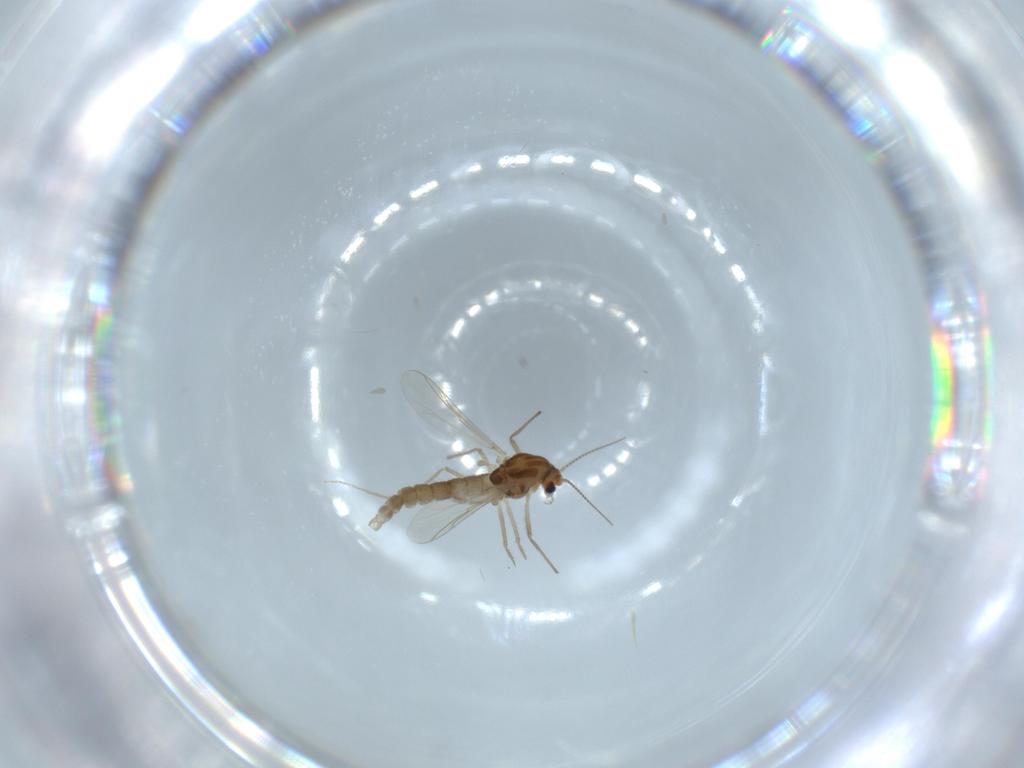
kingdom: Animalia
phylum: Arthropoda
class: Insecta
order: Diptera
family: Chironomidae
